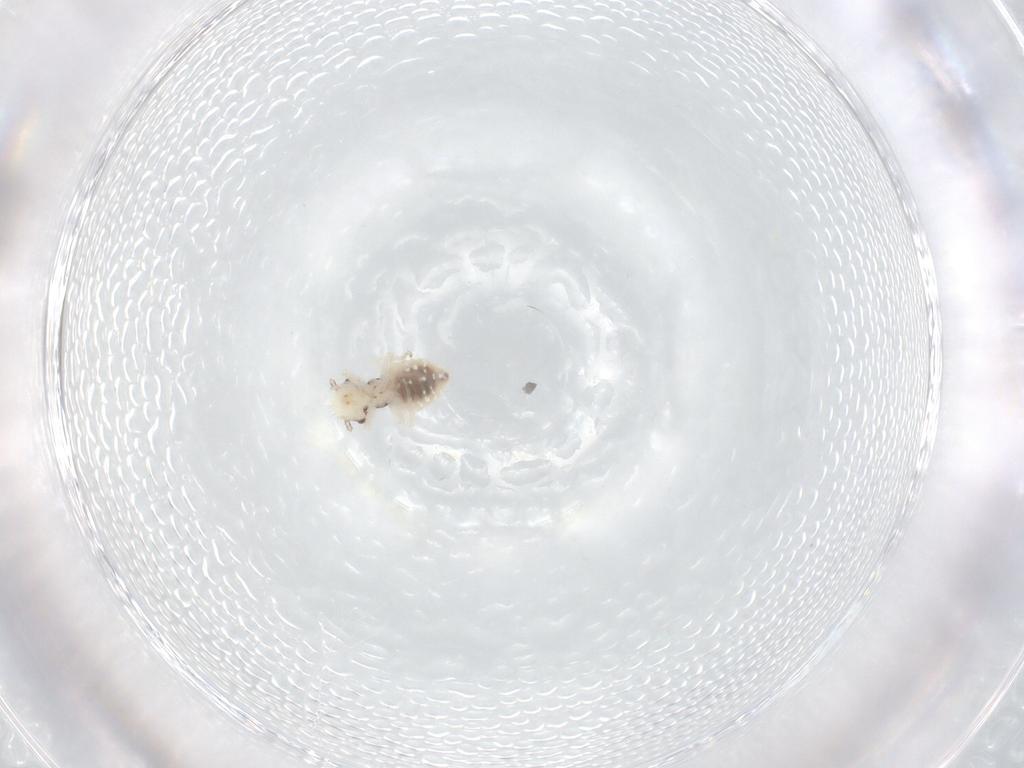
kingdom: Animalia
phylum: Arthropoda
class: Insecta
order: Psocodea
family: Philotarsidae
